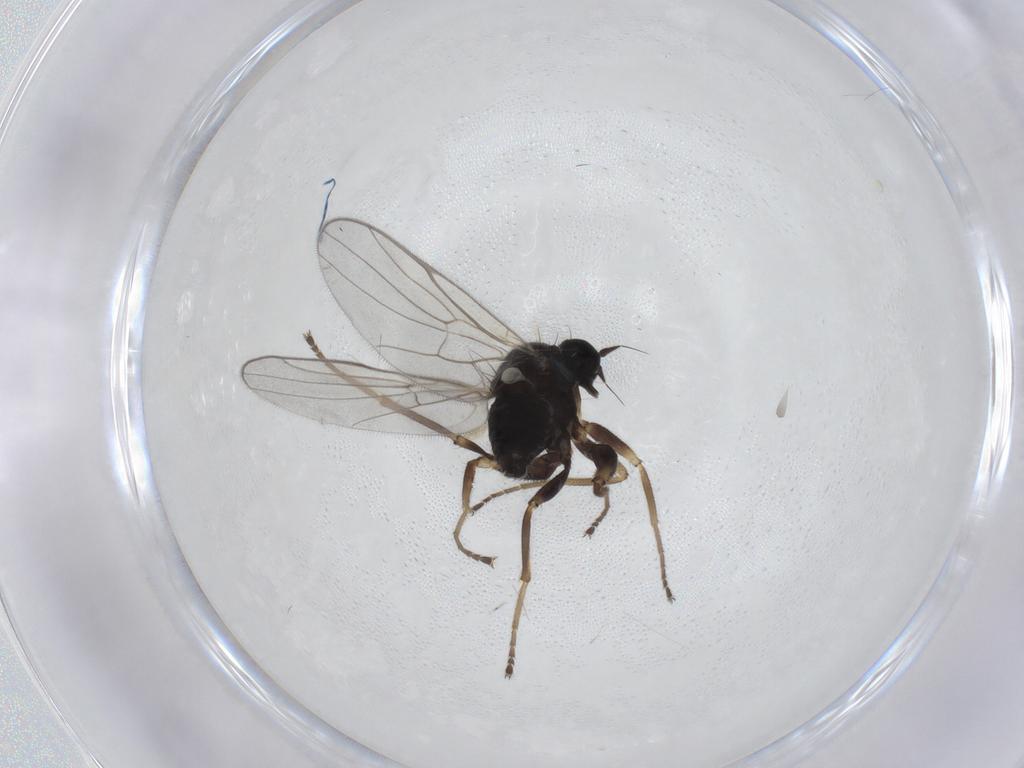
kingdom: Animalia
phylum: Arthropoda
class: Insecta
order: Diptera
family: Hybotidae
